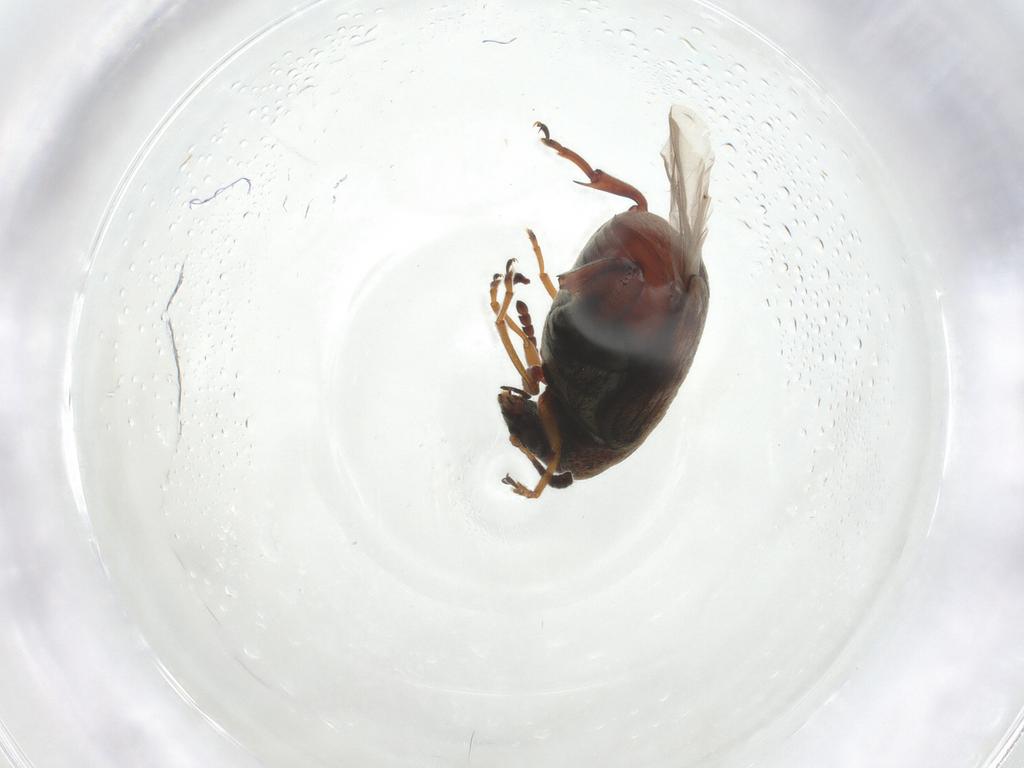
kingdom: Animalia
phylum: Arthropoda
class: Insecta
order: Coleoptera
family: Chrysomelidae
